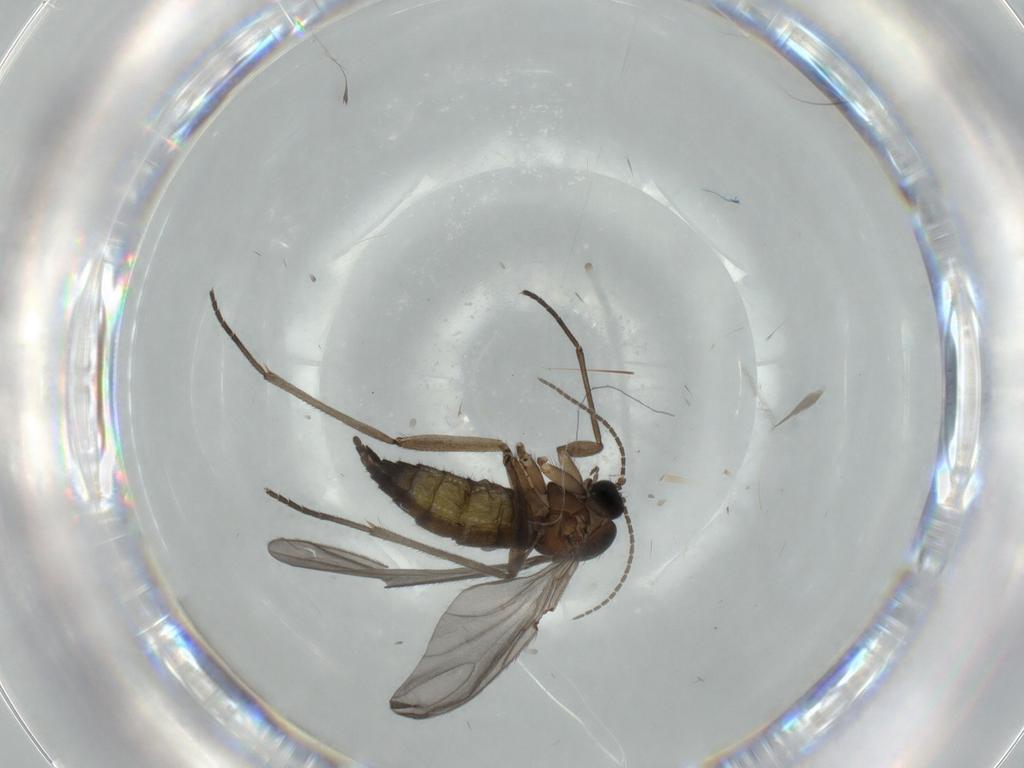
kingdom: Animalia
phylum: Arthropoda
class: Insecta
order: Diptera
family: Sciaridae
